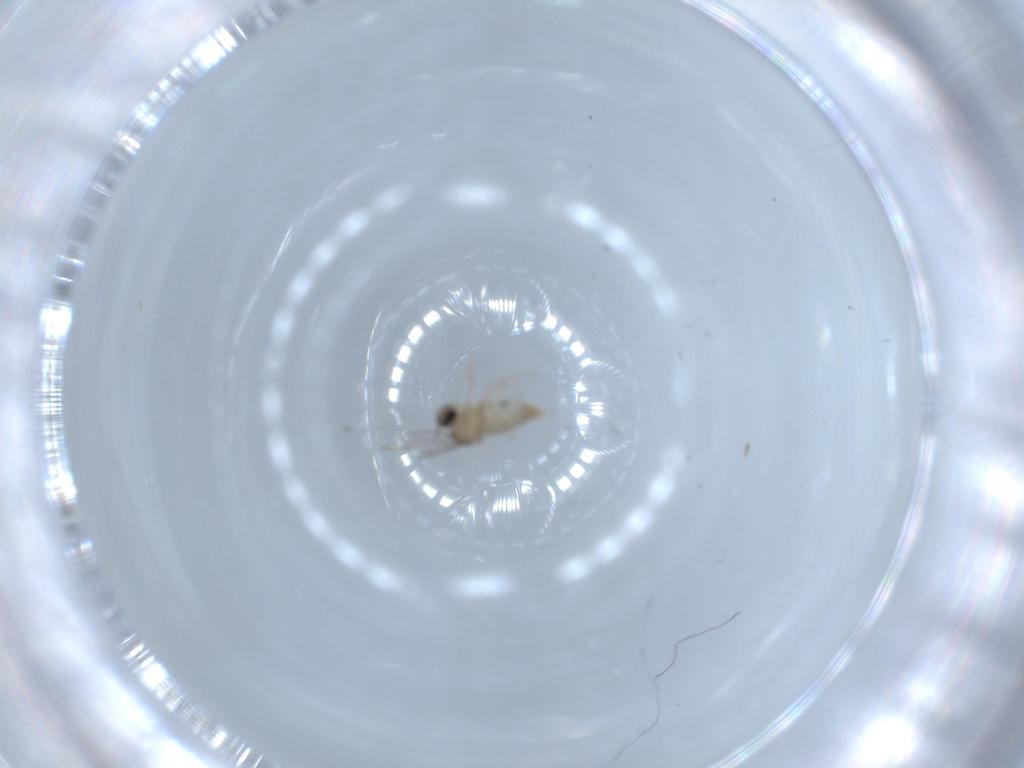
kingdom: Animalia
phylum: Arthropoda
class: Insecta
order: Diptera
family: Cecidomyiidae
